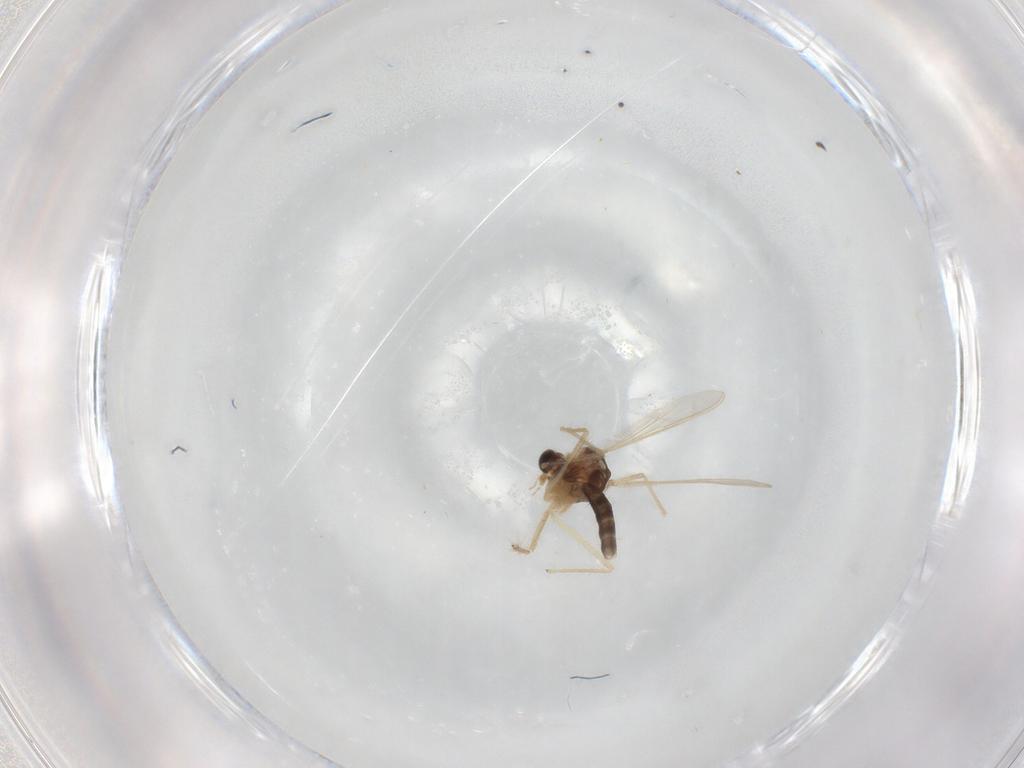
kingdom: Animalia
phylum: Arthropoda
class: Insecta
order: Diptera
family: Chironomidae
